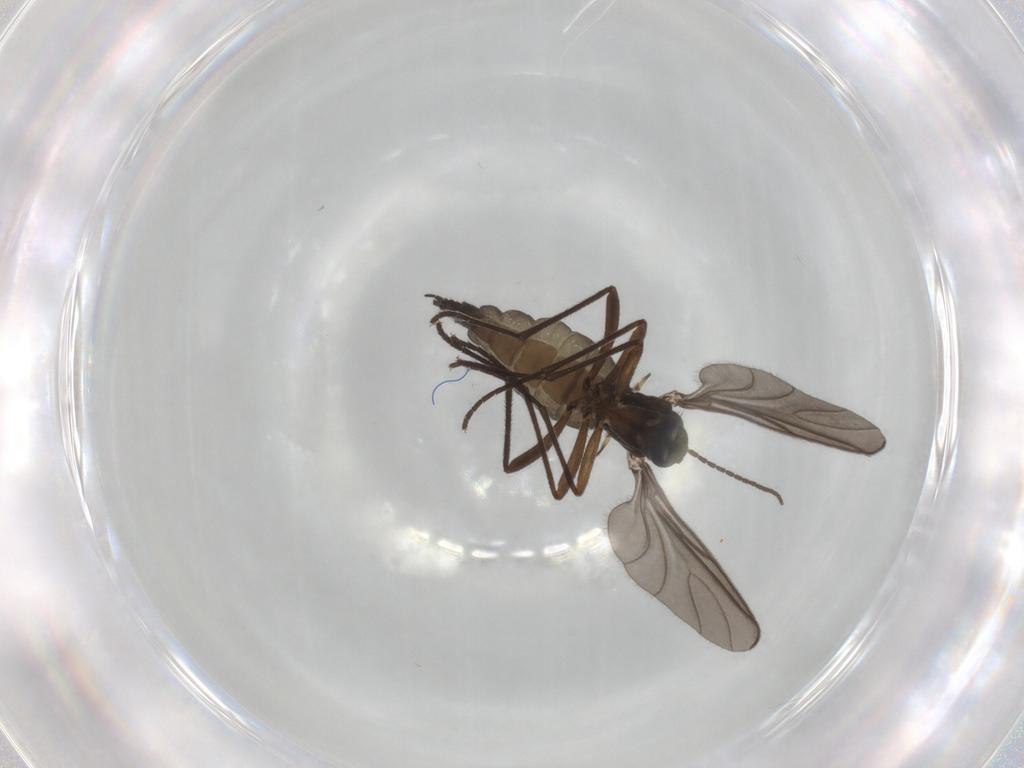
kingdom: Animalia
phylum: Arthropoda
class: Insecta
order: Diptera
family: Sciaridae
